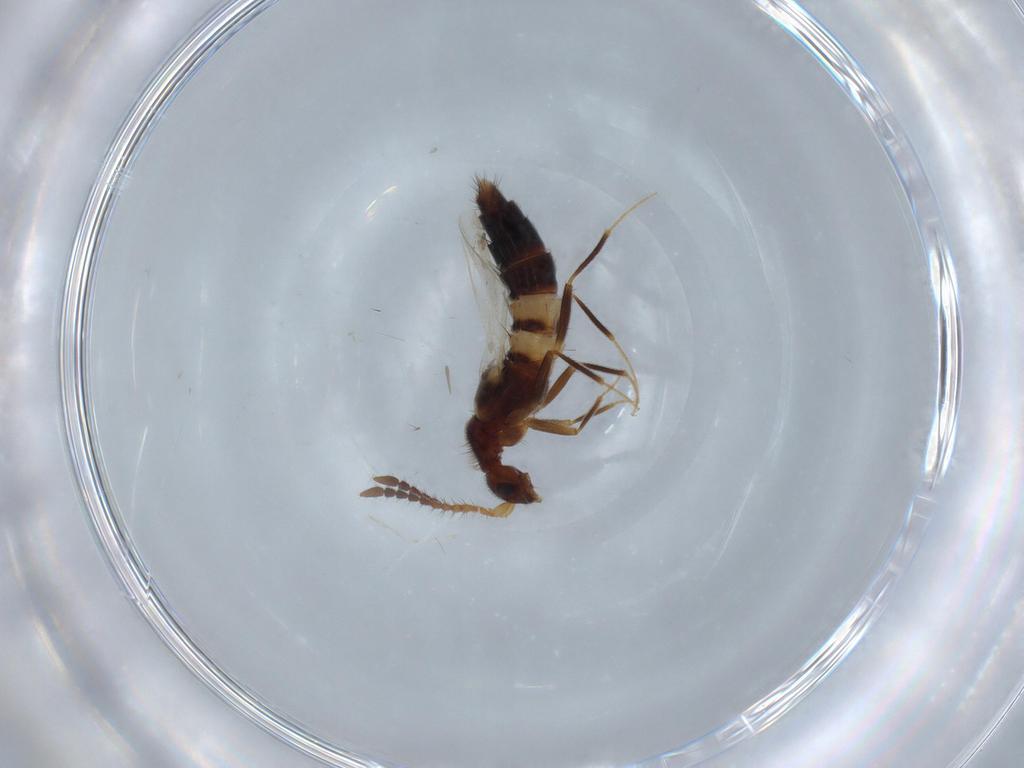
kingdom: Animalia
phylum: Arthropoda
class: Insecta
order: Coleoptera
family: Staphylinidae
